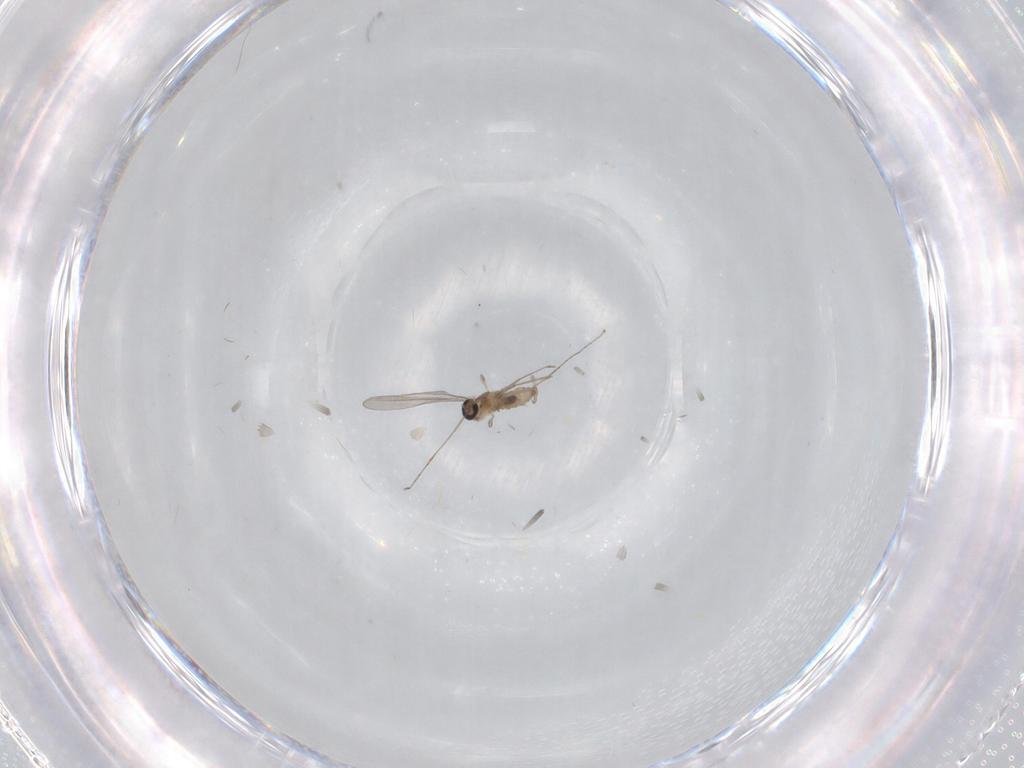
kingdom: Animalia
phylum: Arthropoda
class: Insecta
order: Diptera
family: Cecidomyiidae
